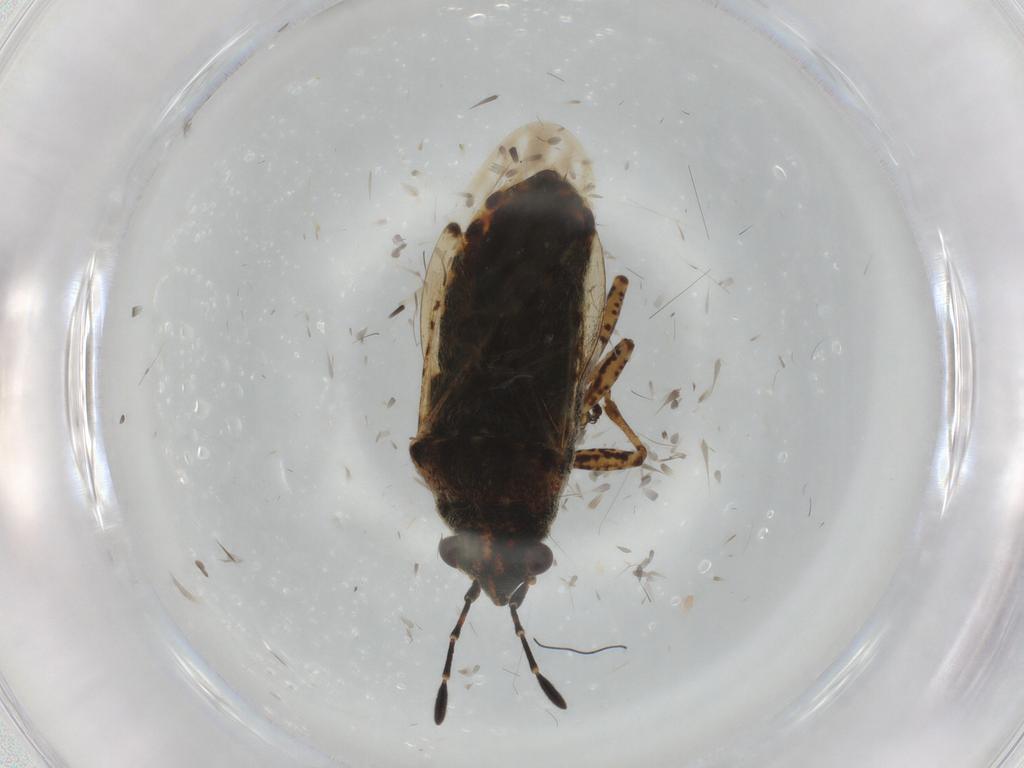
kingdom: Animalia
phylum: Arthropoda
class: Insecta
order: Hemiptera
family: Lygaeidae
